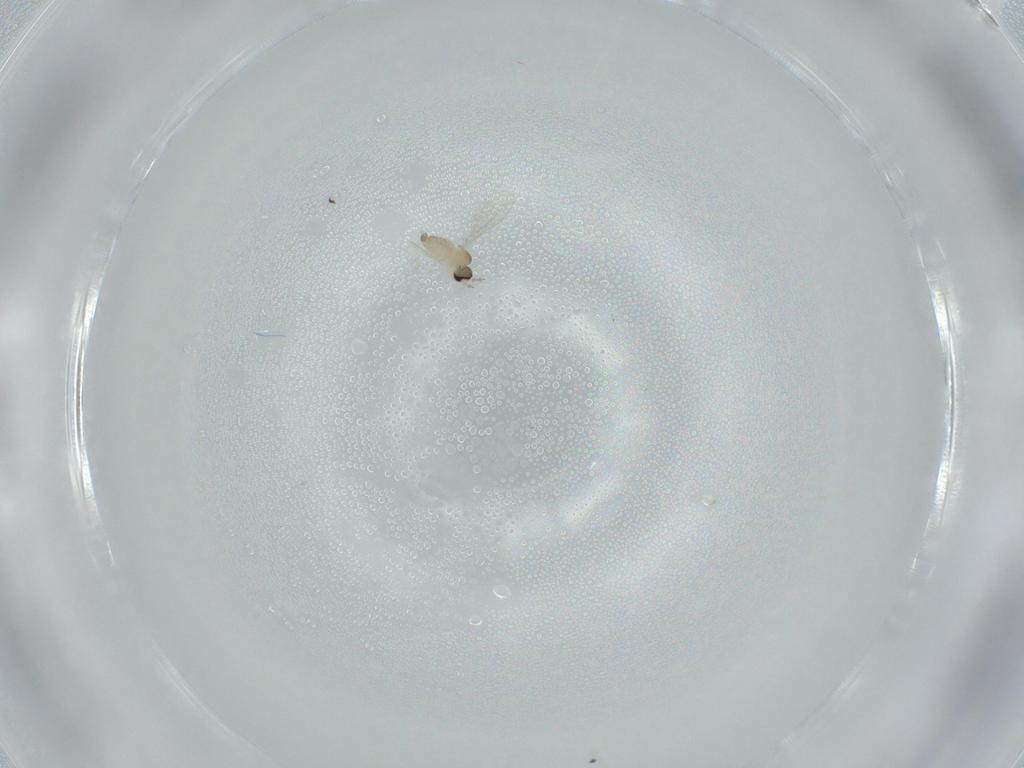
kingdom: Animalia
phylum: Arthropoda
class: Insecta
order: Diptera
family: Cecidomyiidae
